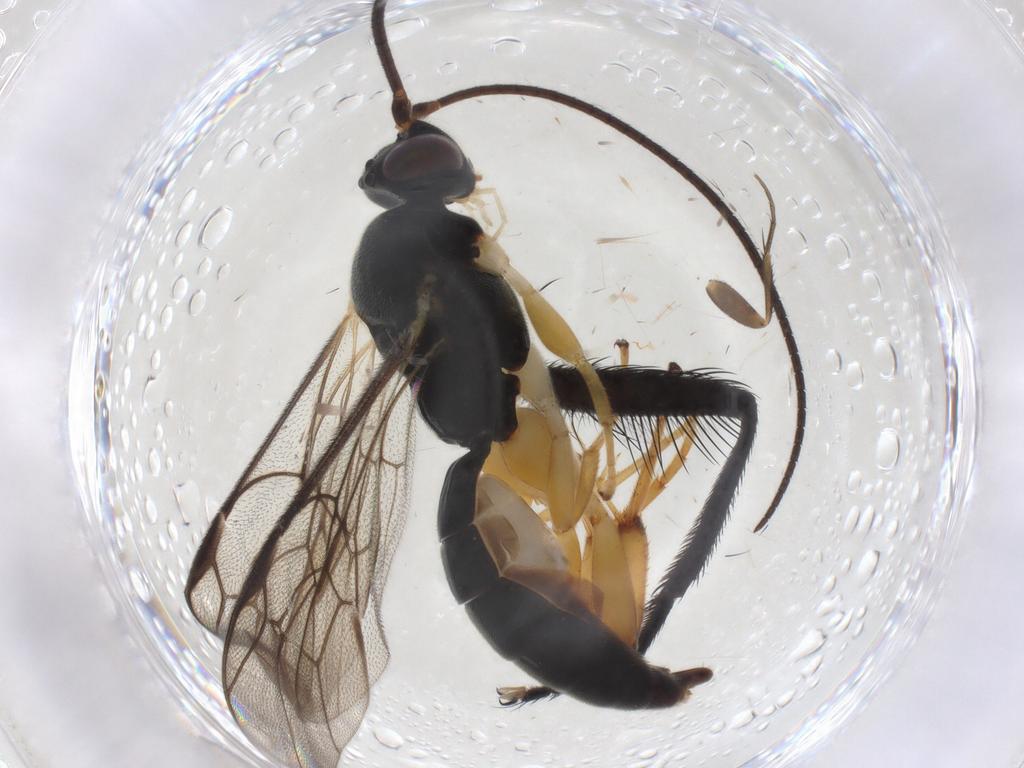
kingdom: Animalia
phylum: Arthropoda
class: Insecta
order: Hymenoptera
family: Ichneumonidae
